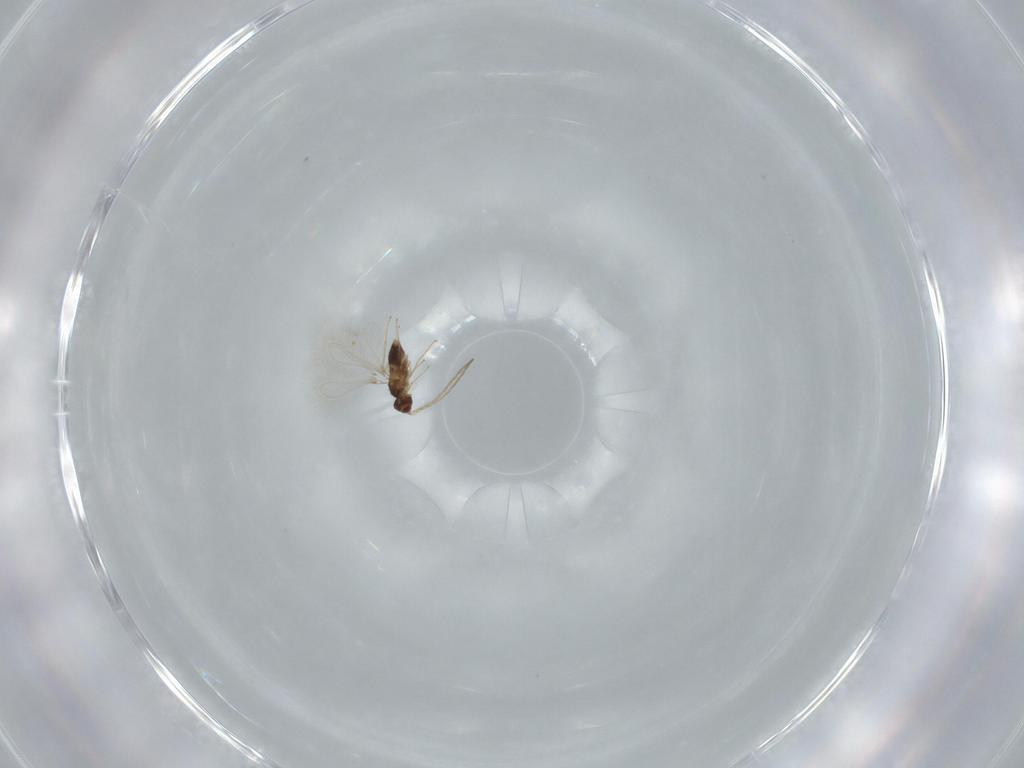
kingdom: Animalia
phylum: Arthropoda
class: Insecta
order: Hymenoptera
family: Mymaridae
